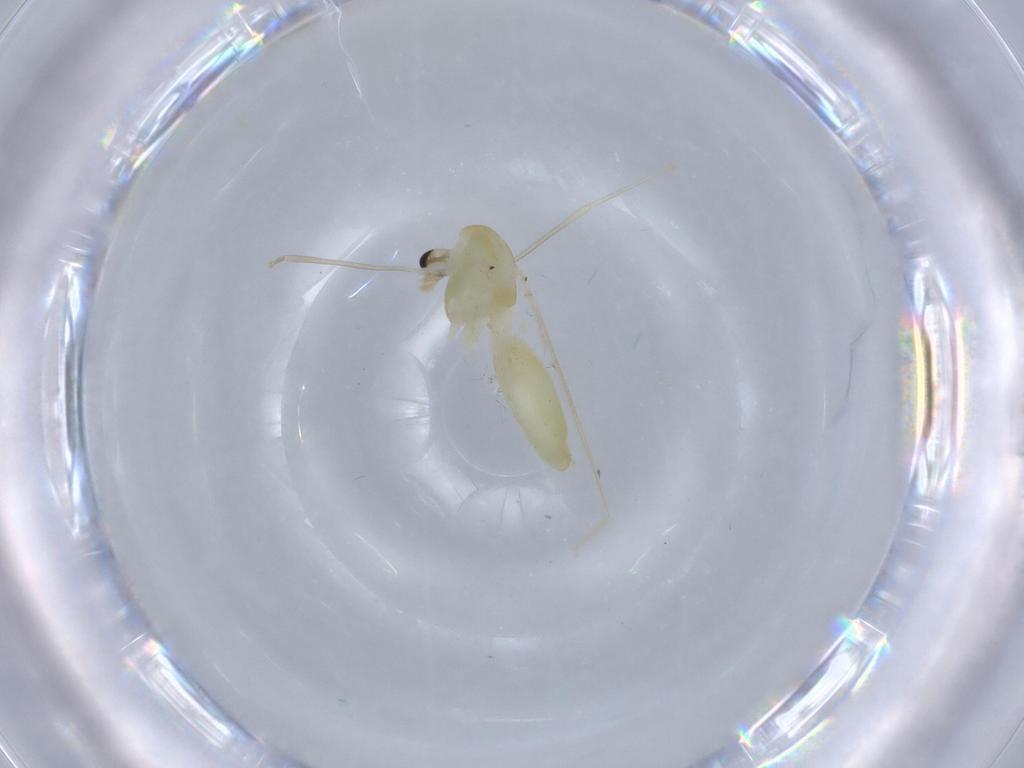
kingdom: Animalia
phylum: Arthropoda
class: Insecta
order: Diptera
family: Chironomidae
